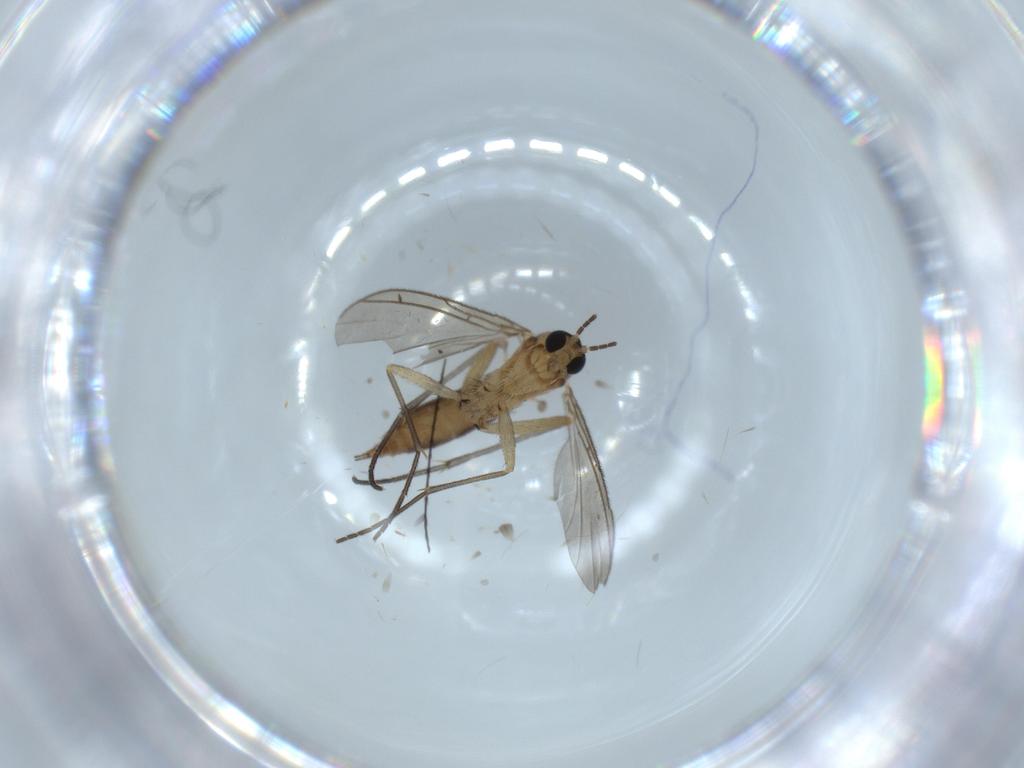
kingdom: Animalia
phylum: Arthropoda
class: Insecta
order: Diptera
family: Sciaridae
